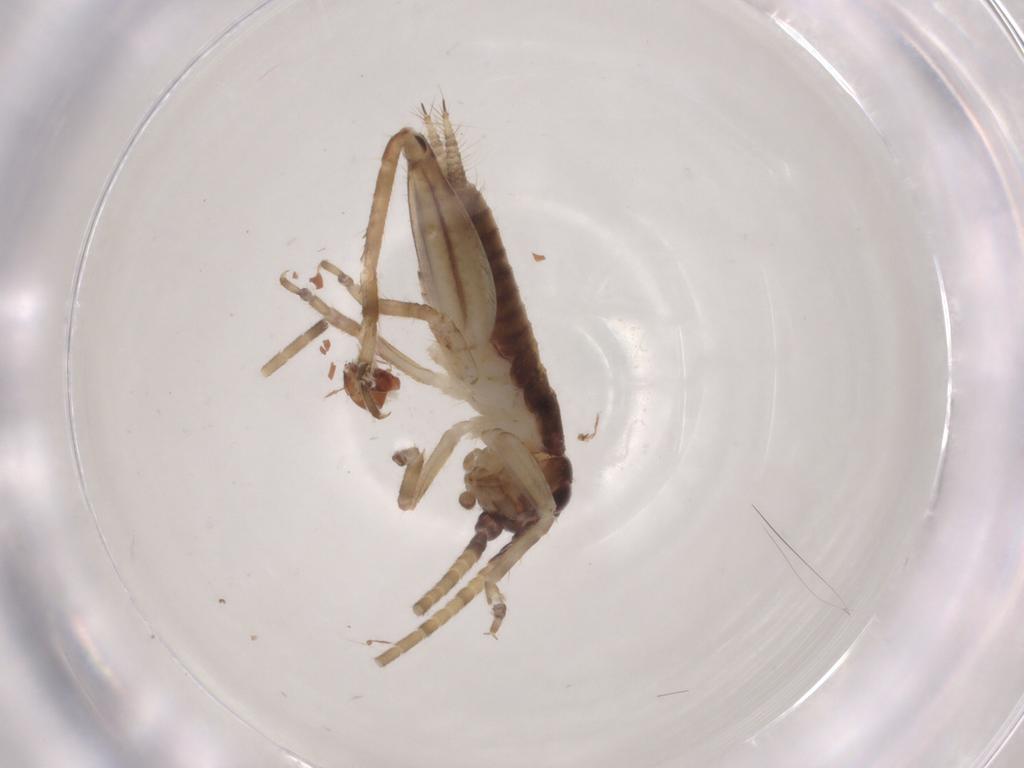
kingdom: Animalia
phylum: Arthropoda
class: Insecta
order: Orthoptera
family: Gryllidae
